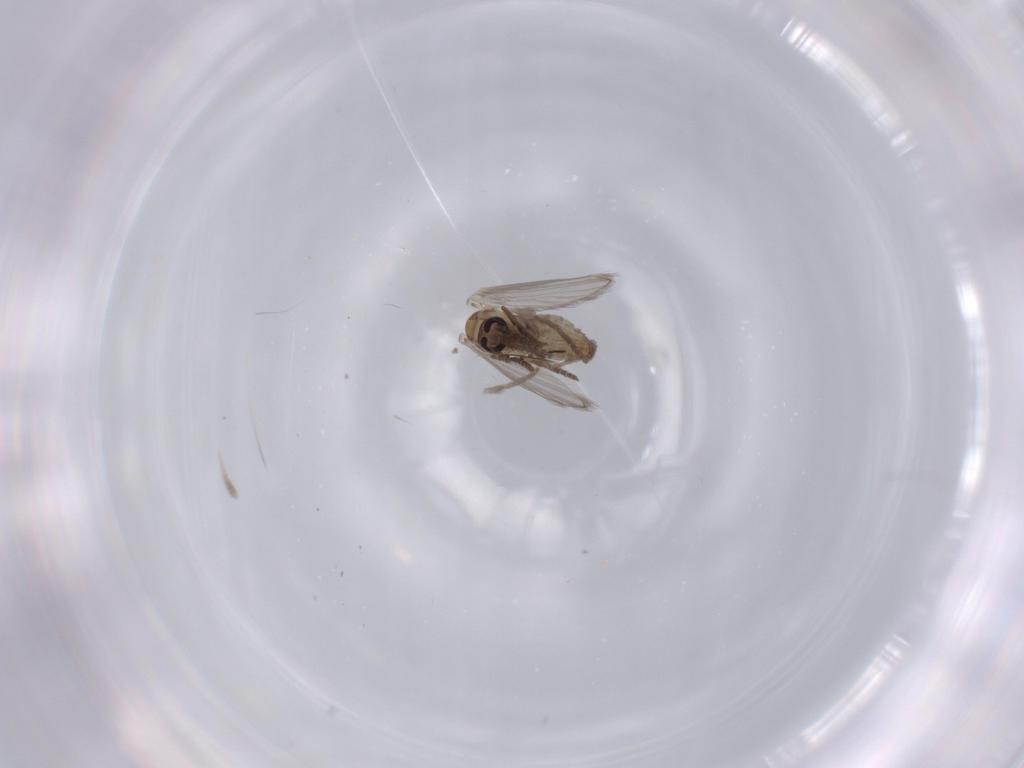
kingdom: Animalia
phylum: Arthropoda
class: Insecta
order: Diptera
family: Psychodidae
